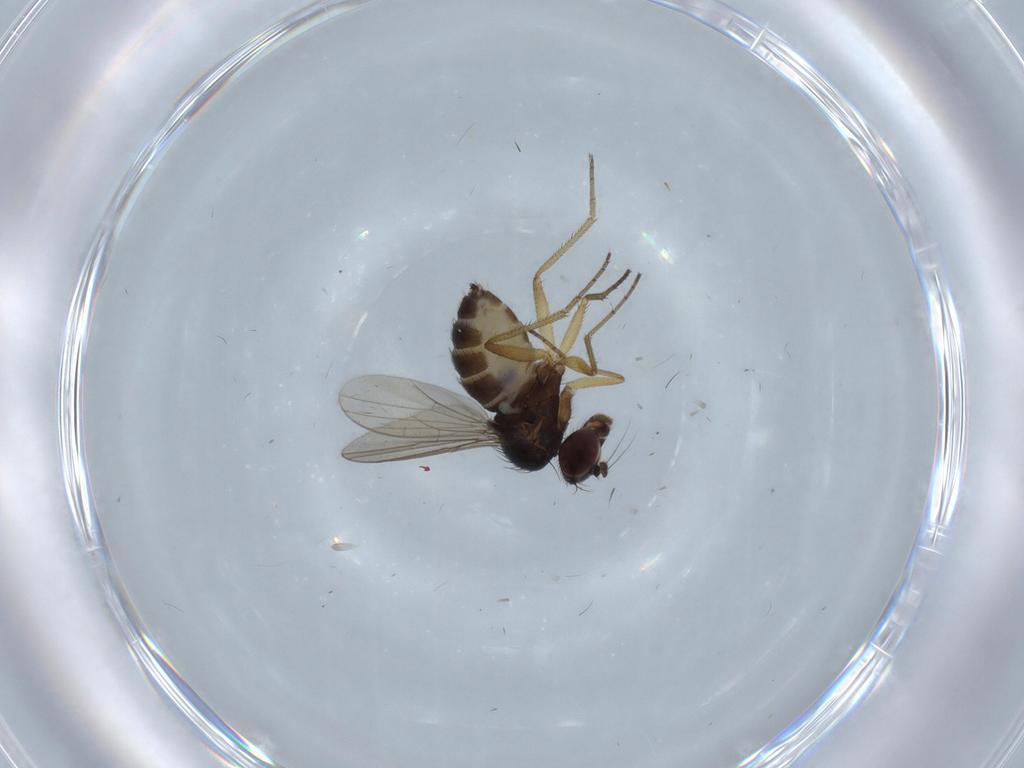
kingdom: Animalia
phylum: Arthropoda
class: Insecta
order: Diptera
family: Dolichopodidae
